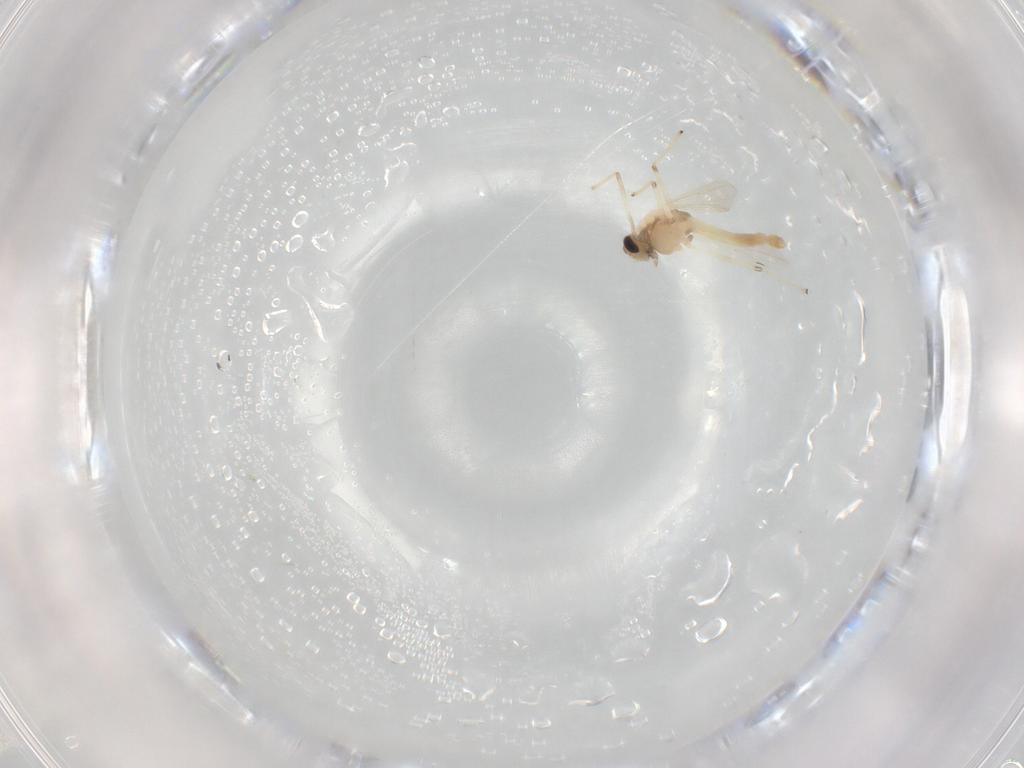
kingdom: Animalia
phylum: Arthropoda
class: Insecta
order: Diptera
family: Chironomidae
